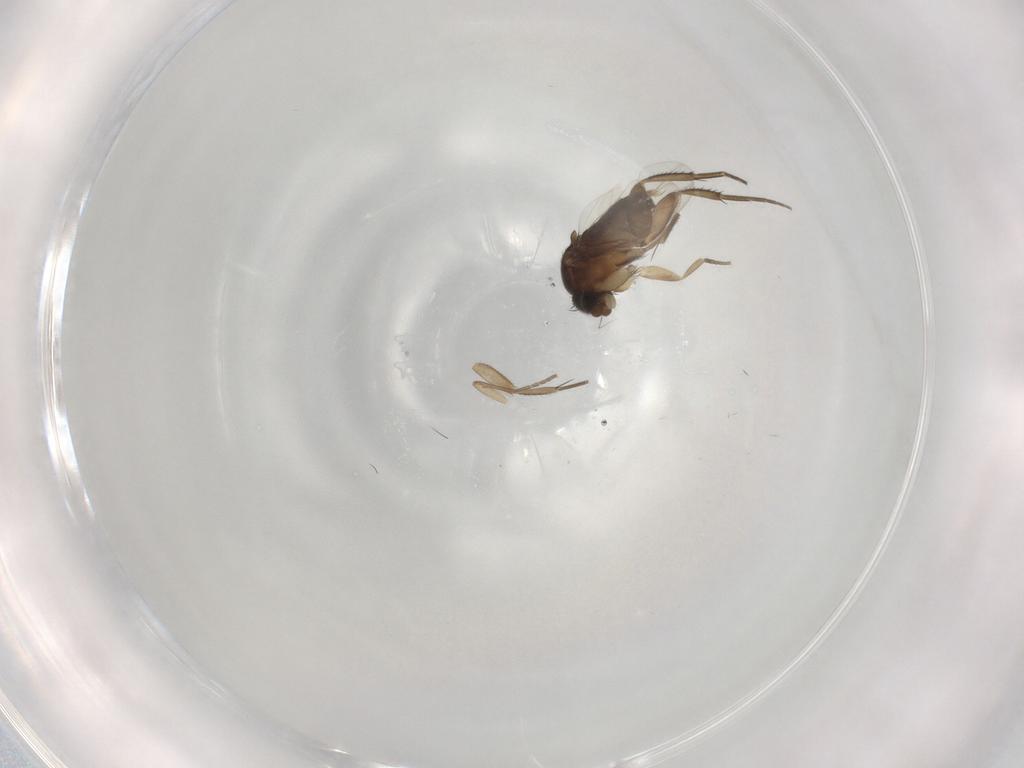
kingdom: Animalia
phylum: Arthropoda
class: Insecta
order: Diptera
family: Phoridae
